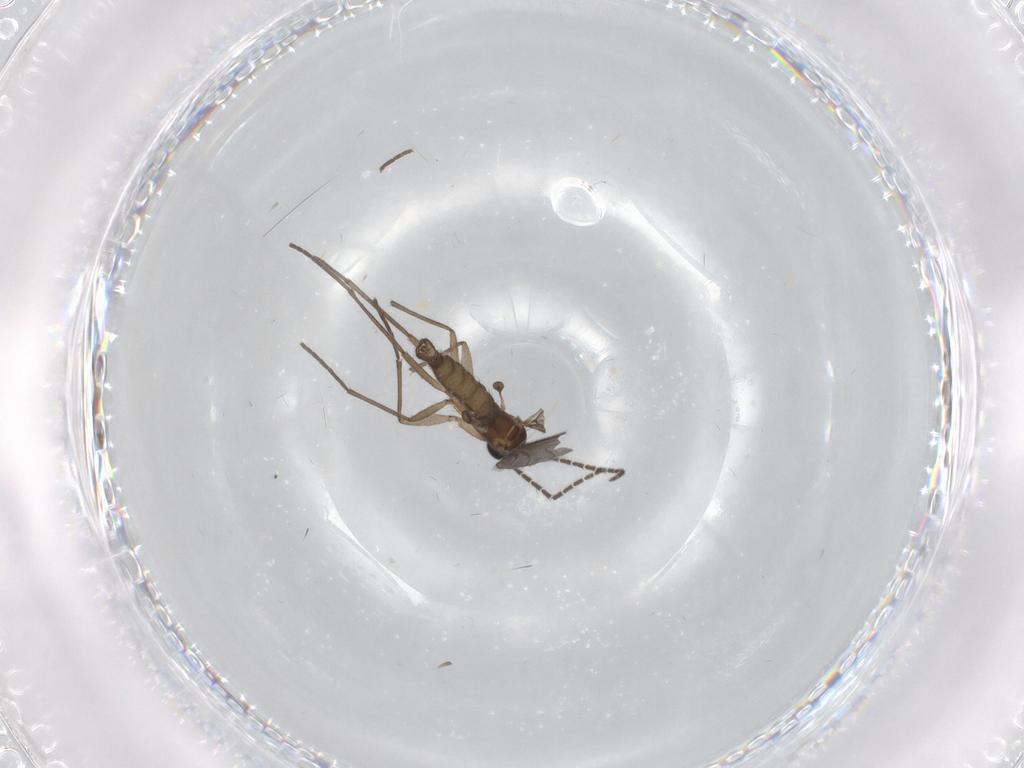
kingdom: Animalia
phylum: Arthropoda
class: Insecta
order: Diptera
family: Sciaridae
